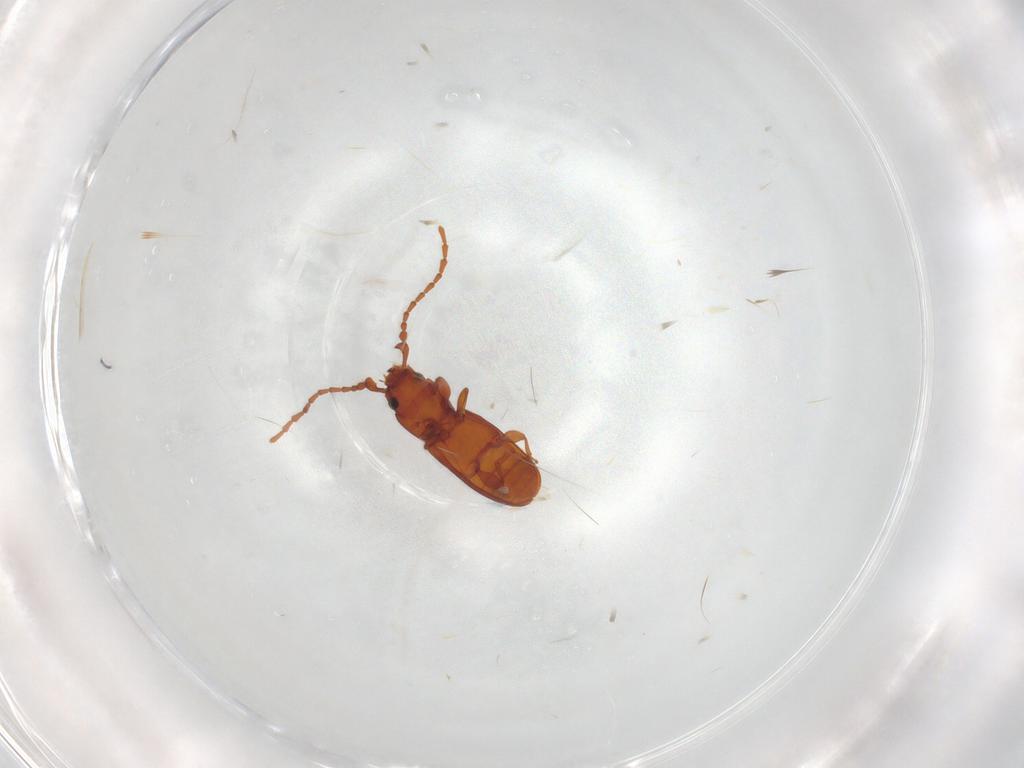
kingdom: Animalia
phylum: Arthropoda
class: Insecta
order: Coleoptera
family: Laemophloeidae
